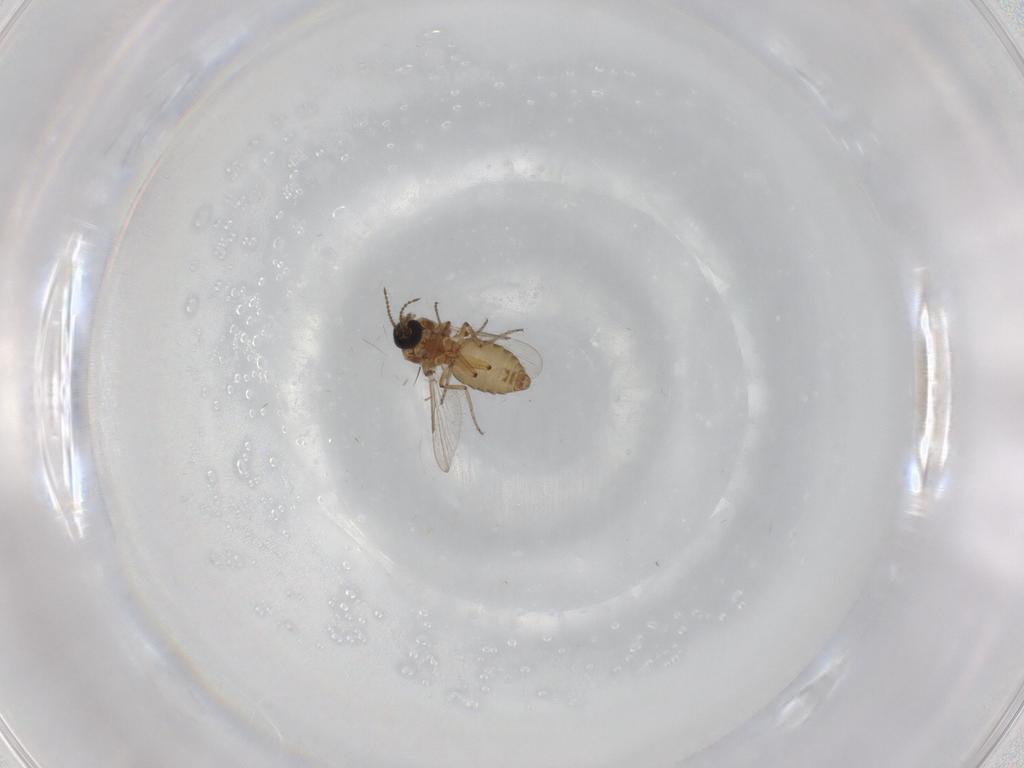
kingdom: Animalia
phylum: Arthropoda
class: Insecta
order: Diptera
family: Ceratopogonidae
